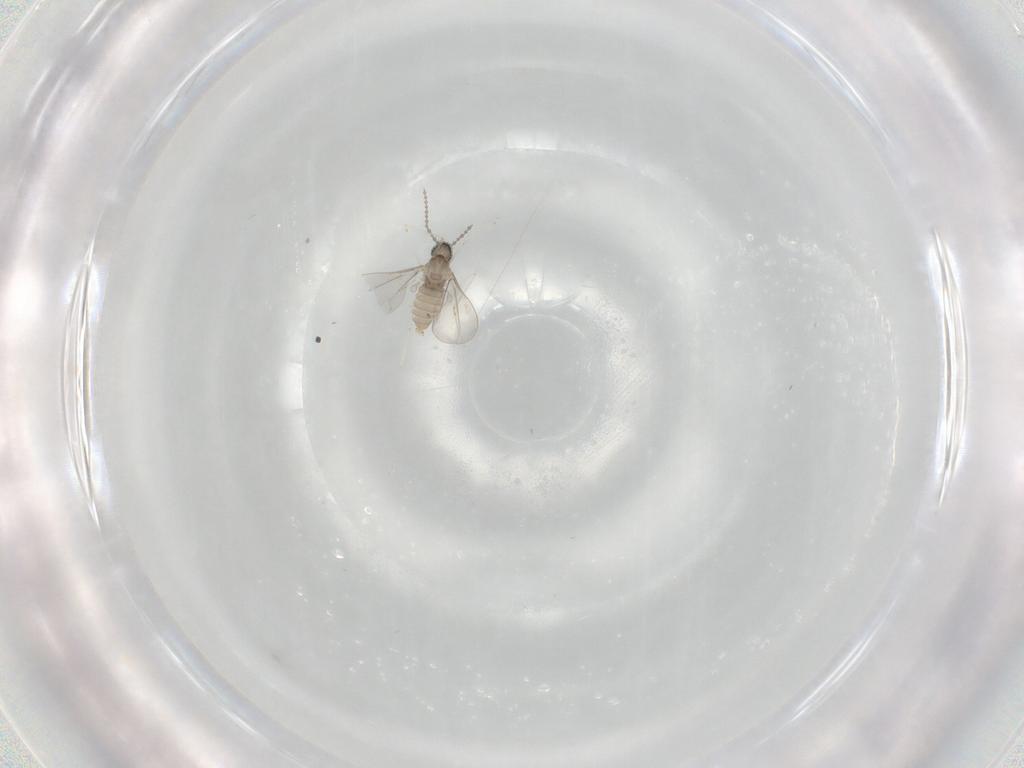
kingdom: Animalia
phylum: Arthropoda
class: Insecta
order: Diptera
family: Cecidomyiidae
